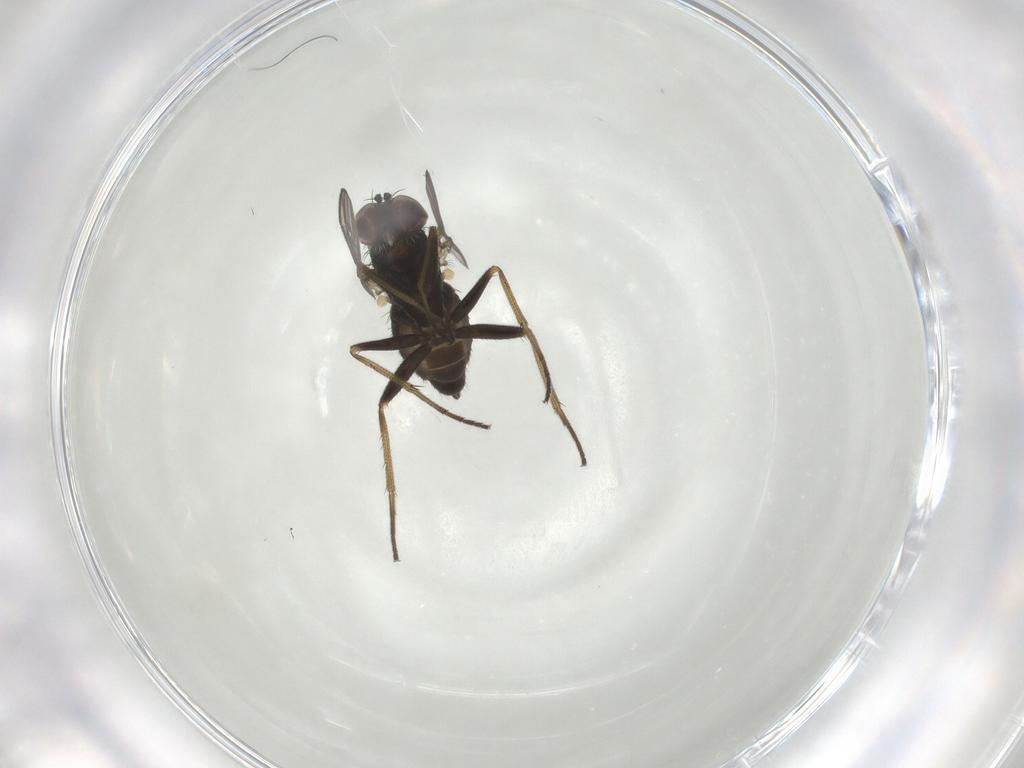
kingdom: Animalia
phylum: Arthropoda
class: Insecta
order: Diptera
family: Dolichopodidae
